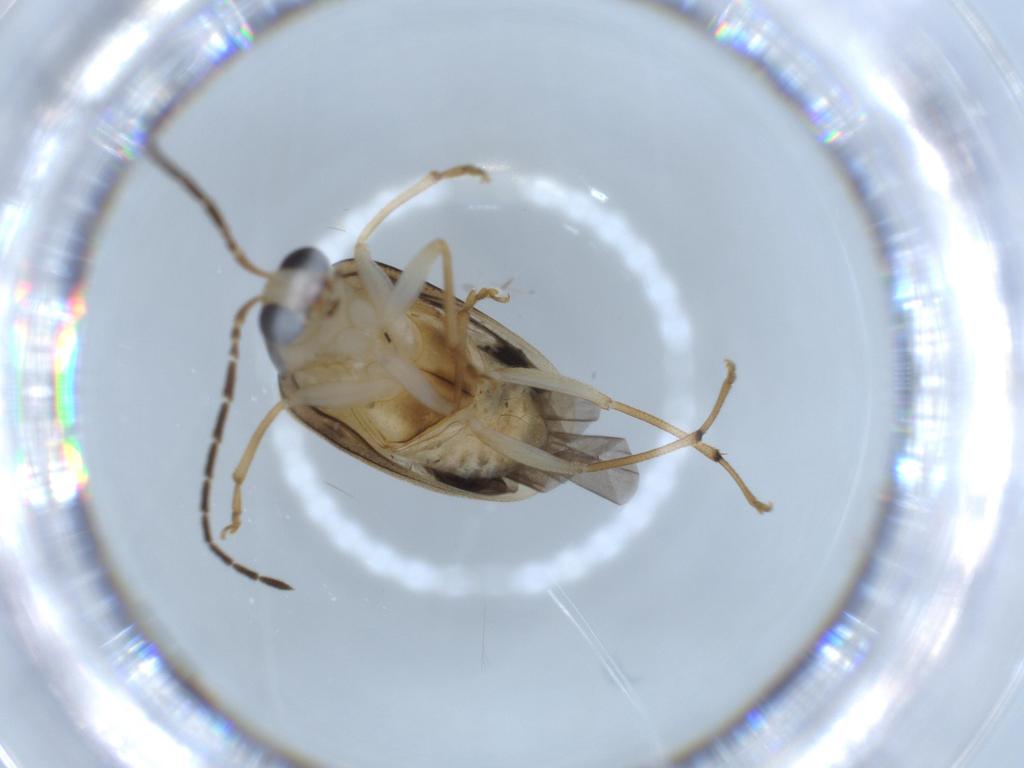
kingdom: Animalia
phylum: Arthropoda
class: Insecta
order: Coleoptera
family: Chrysomelidae
